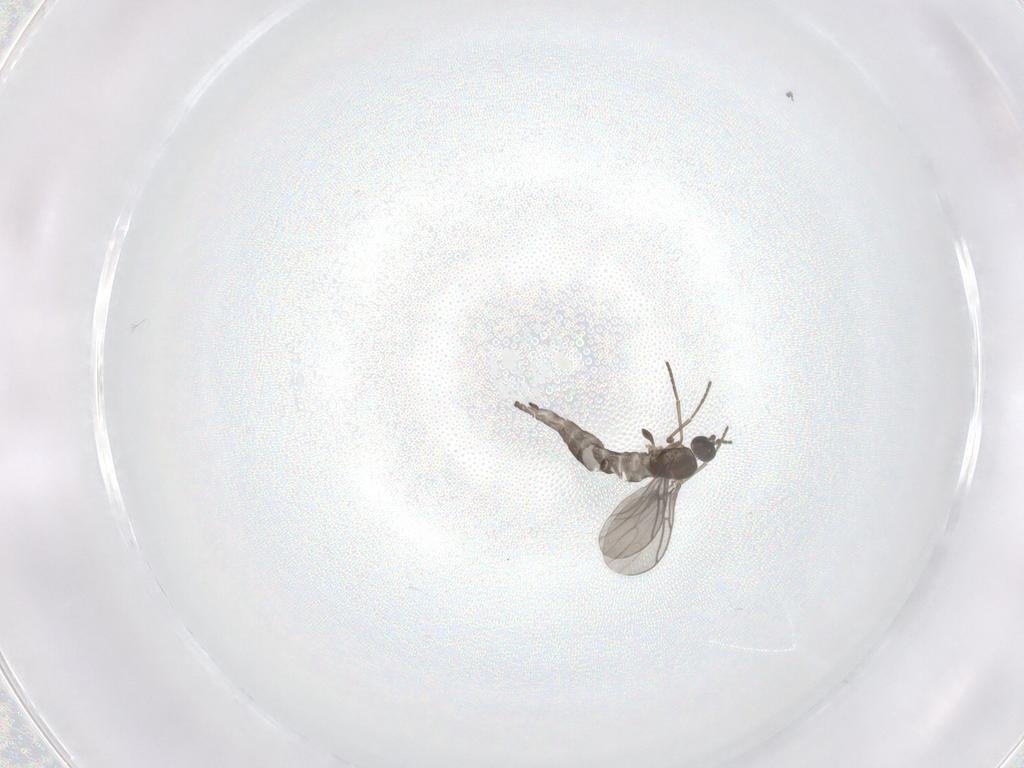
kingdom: Animalia
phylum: Arthropoda
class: Insecta
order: Diptera
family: Sciaridae
